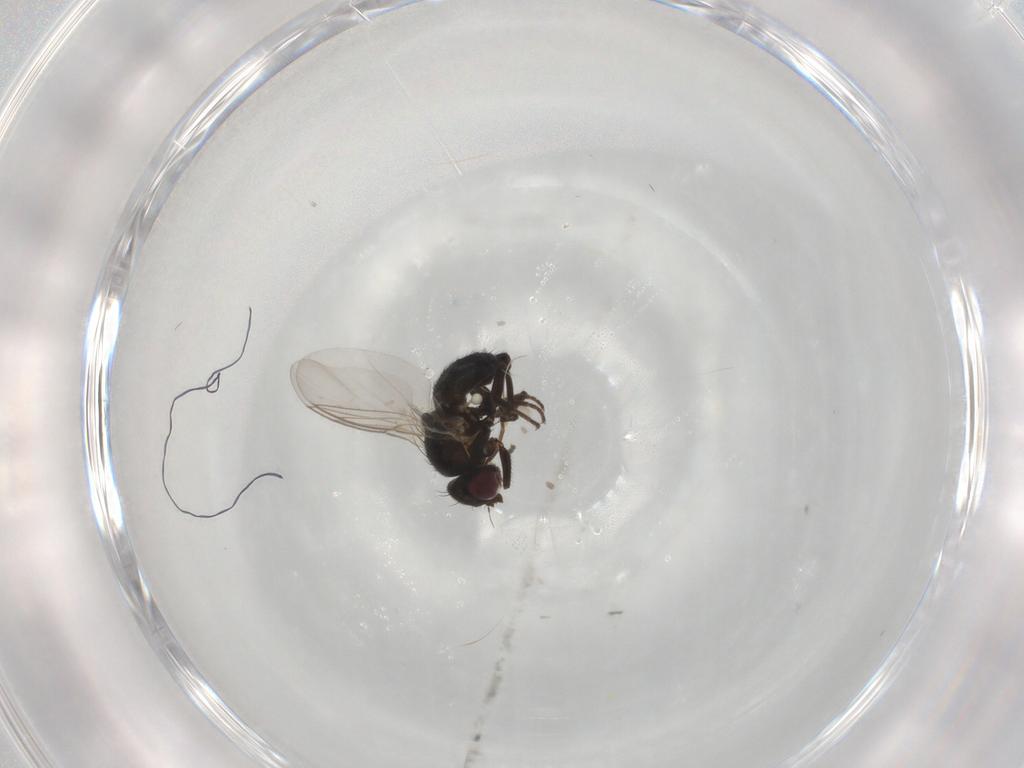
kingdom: Animalia
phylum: Arthropoda
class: Insecta
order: Diptera
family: Agromyzidae
